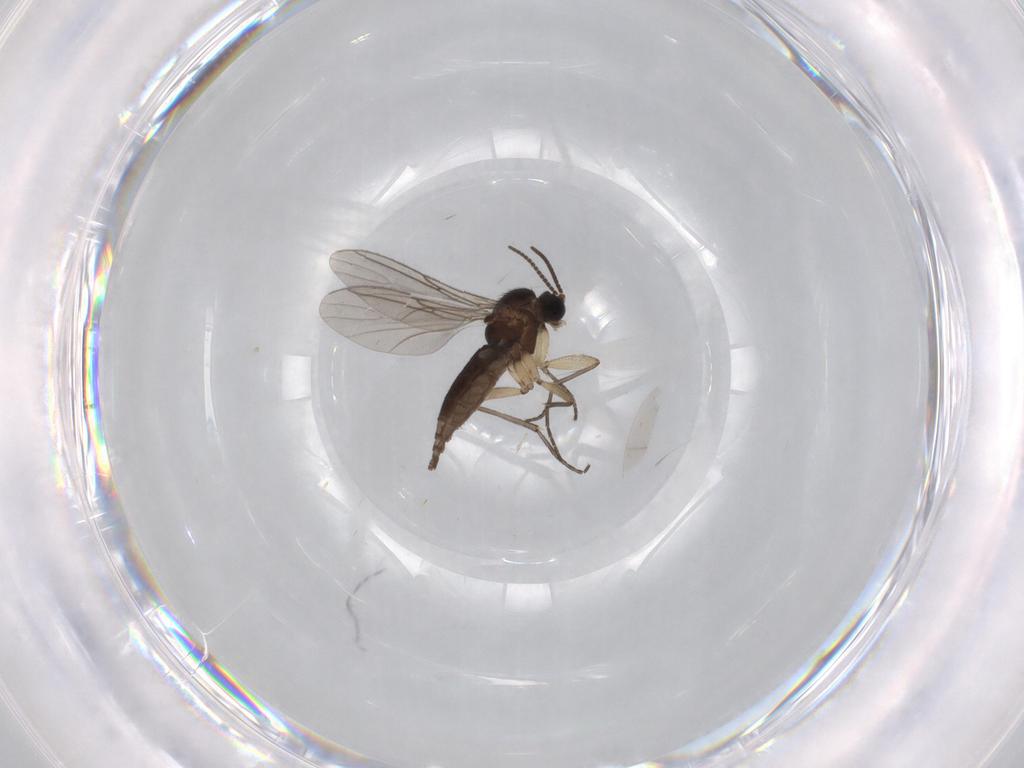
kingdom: Animalia
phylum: Arthropoda
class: Insecta
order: Diptera
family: Sciaridae
